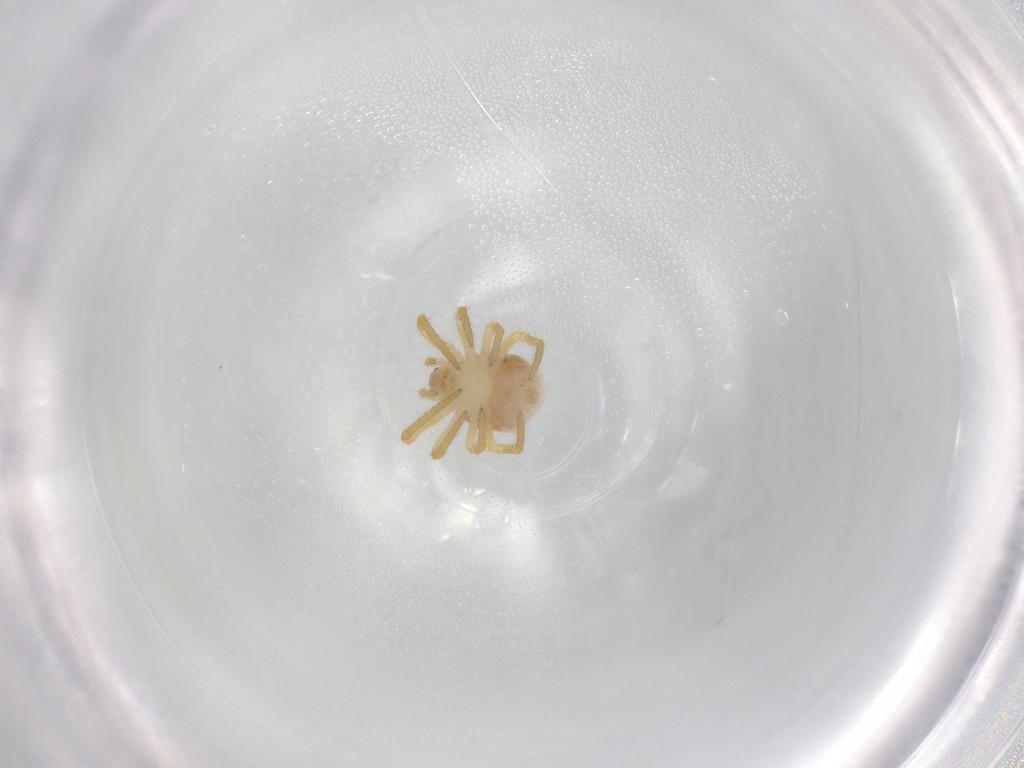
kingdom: Animalia
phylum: Arthropoda
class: Arachnida
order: Araneae
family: Theridiidae
